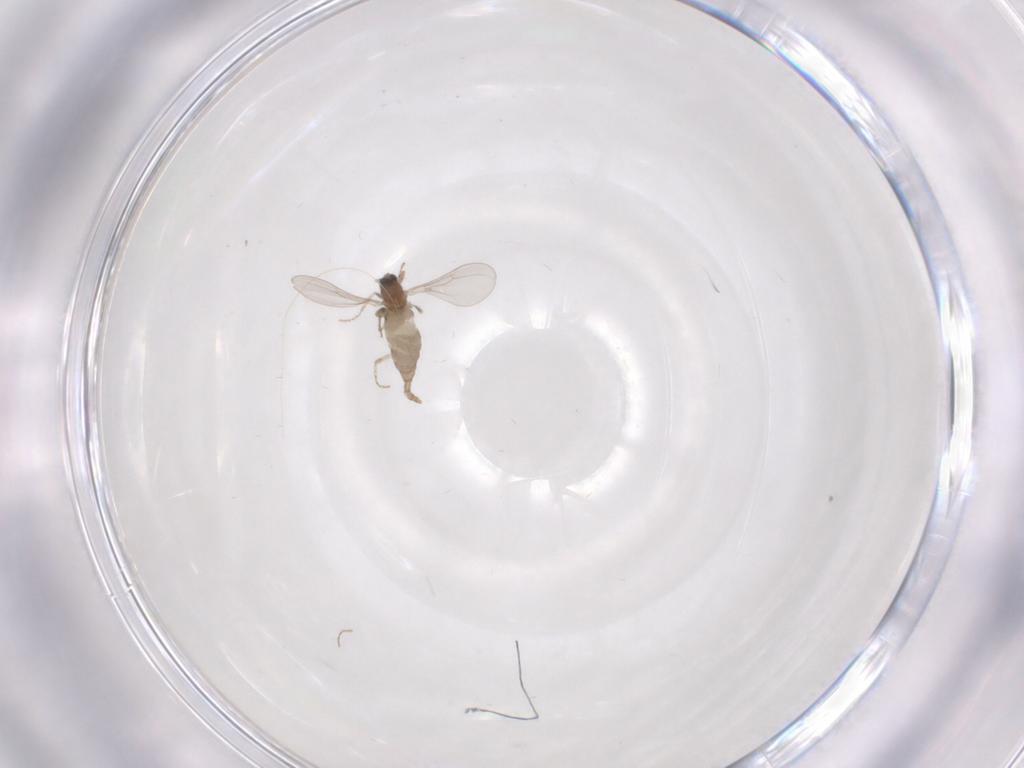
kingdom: Animalia
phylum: Arthropoda
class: Insecta
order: Diptera
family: Cecidomyiidae
